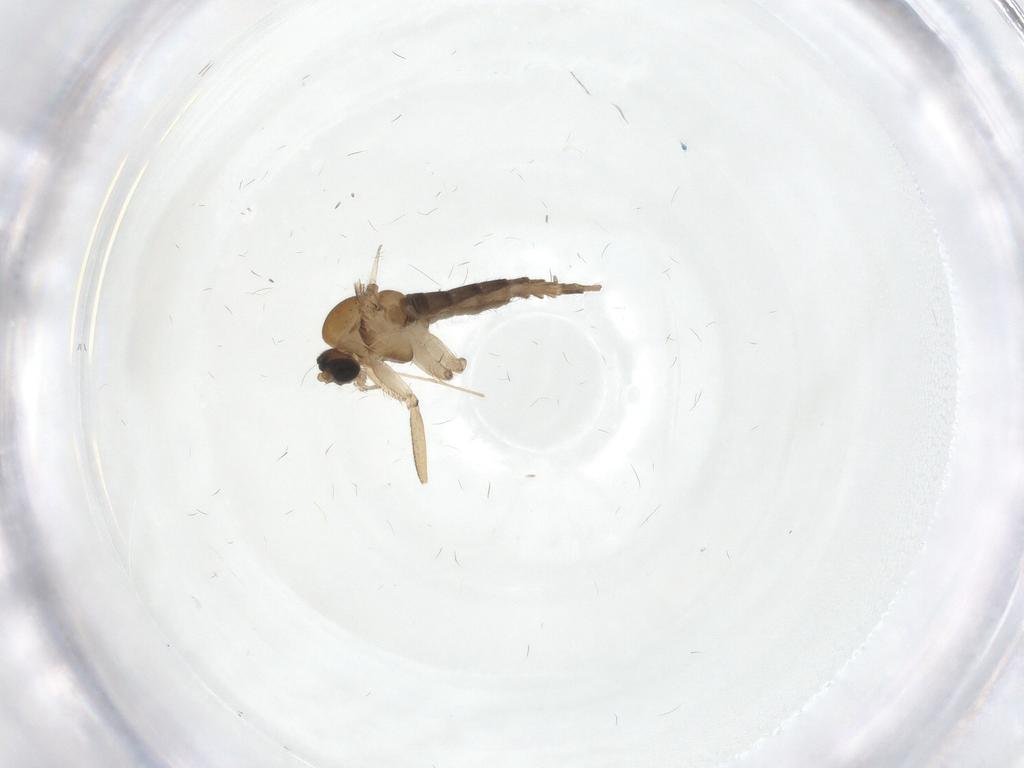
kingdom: Animalia
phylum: Arthropoda
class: Insecta
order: Diptera
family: Sciaridae
